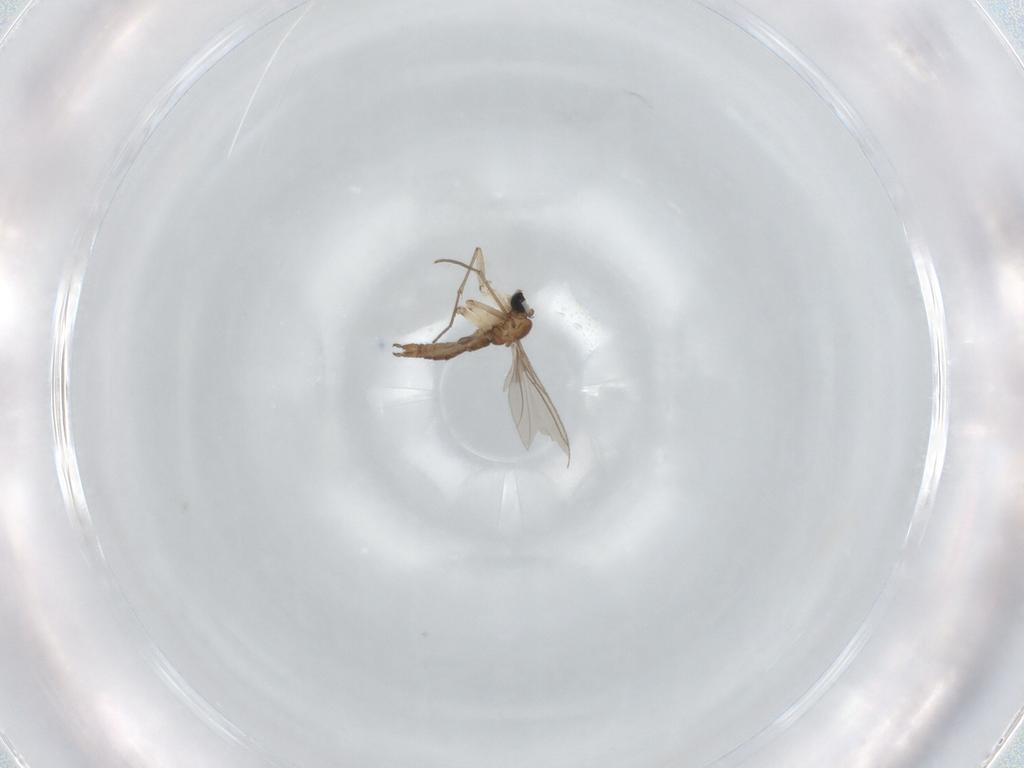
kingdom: Animalia
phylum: Arthropoda
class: Insecta
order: Diptera
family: Sciaridae
